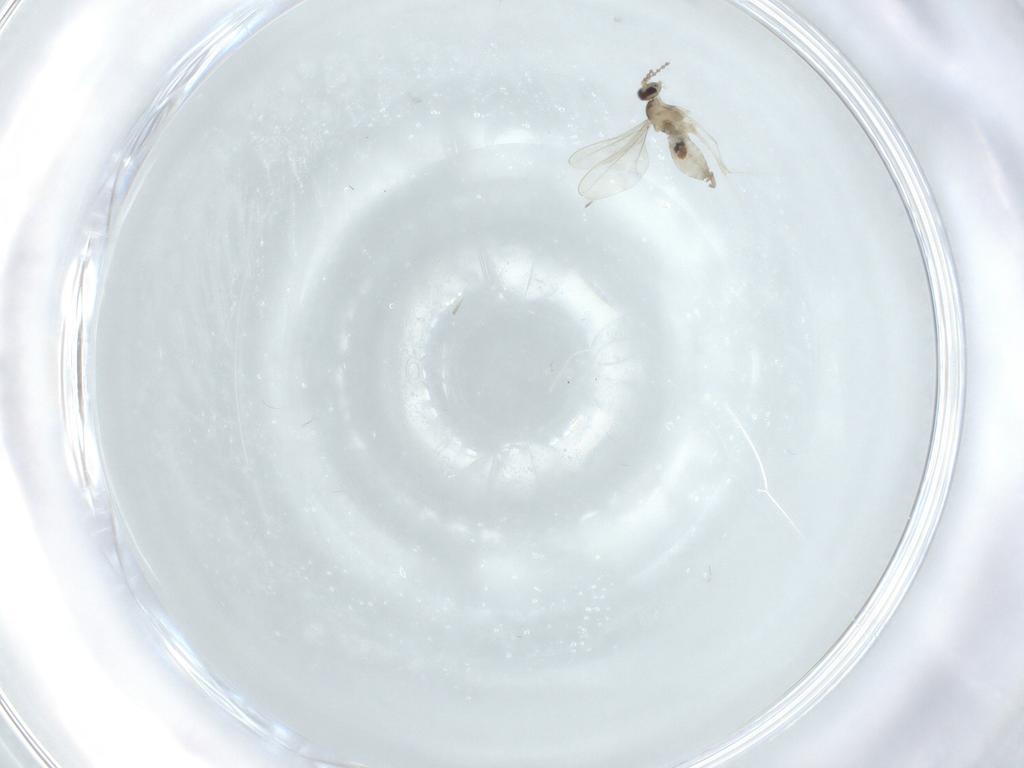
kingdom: Animalia
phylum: Arthropoda
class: Insecta
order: Diptera
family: Cecidomyiidae
